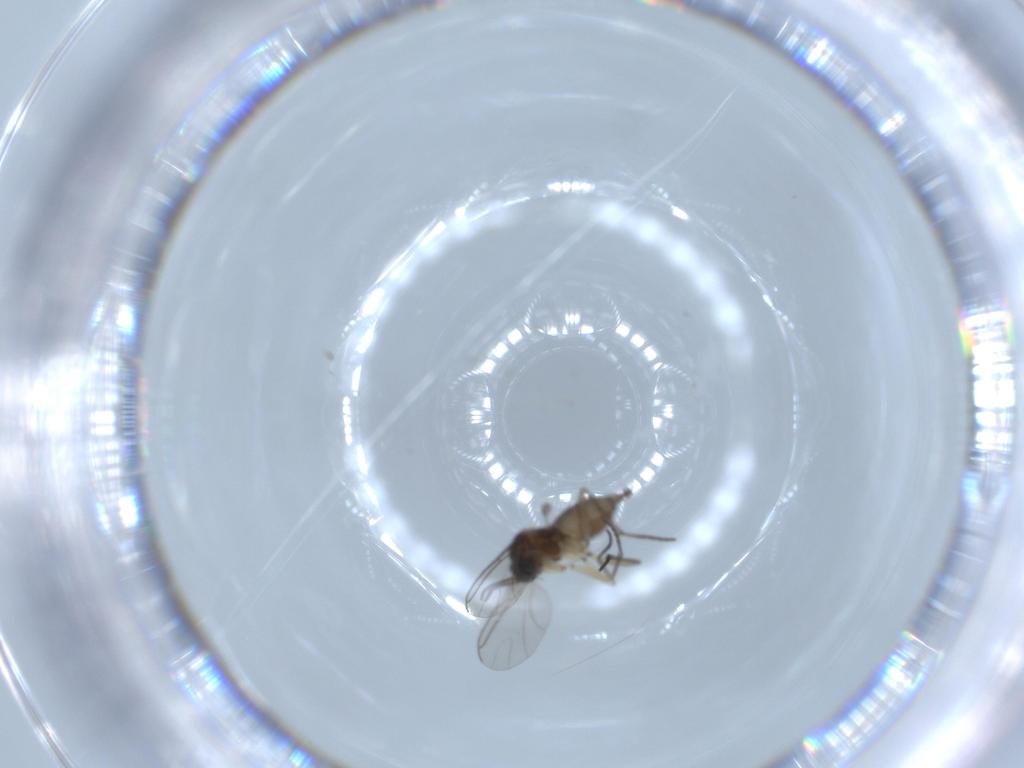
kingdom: Animalia
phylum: Arthropoda
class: Insecta
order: Diptera
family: Sciaridae
